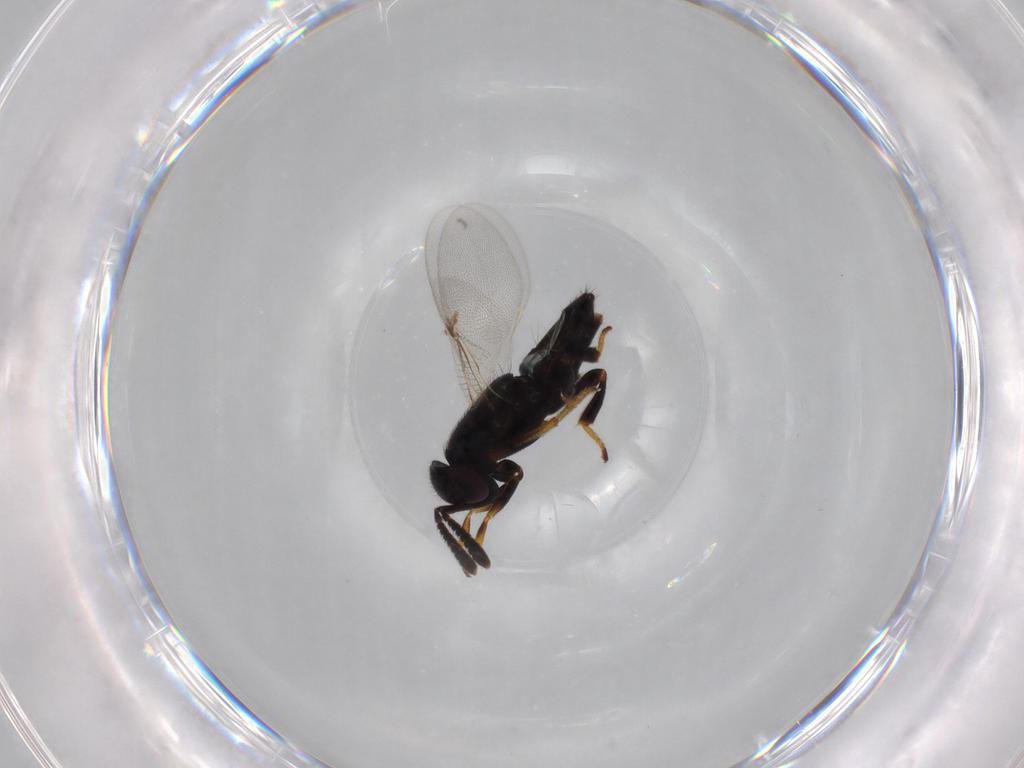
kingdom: Animalia
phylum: Arthropoda
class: Insecta
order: Hymenoptera
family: Encyrtidae
